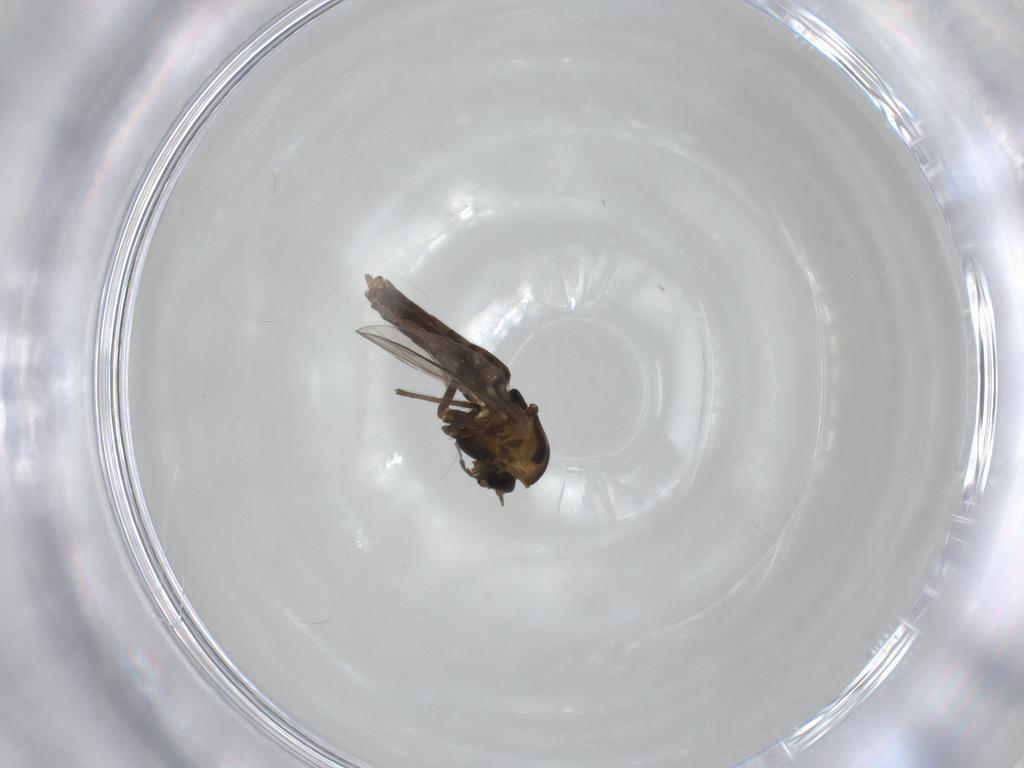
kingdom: Animalia
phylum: Arthropoda
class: Insecta
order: Diptera
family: Chironomidae
